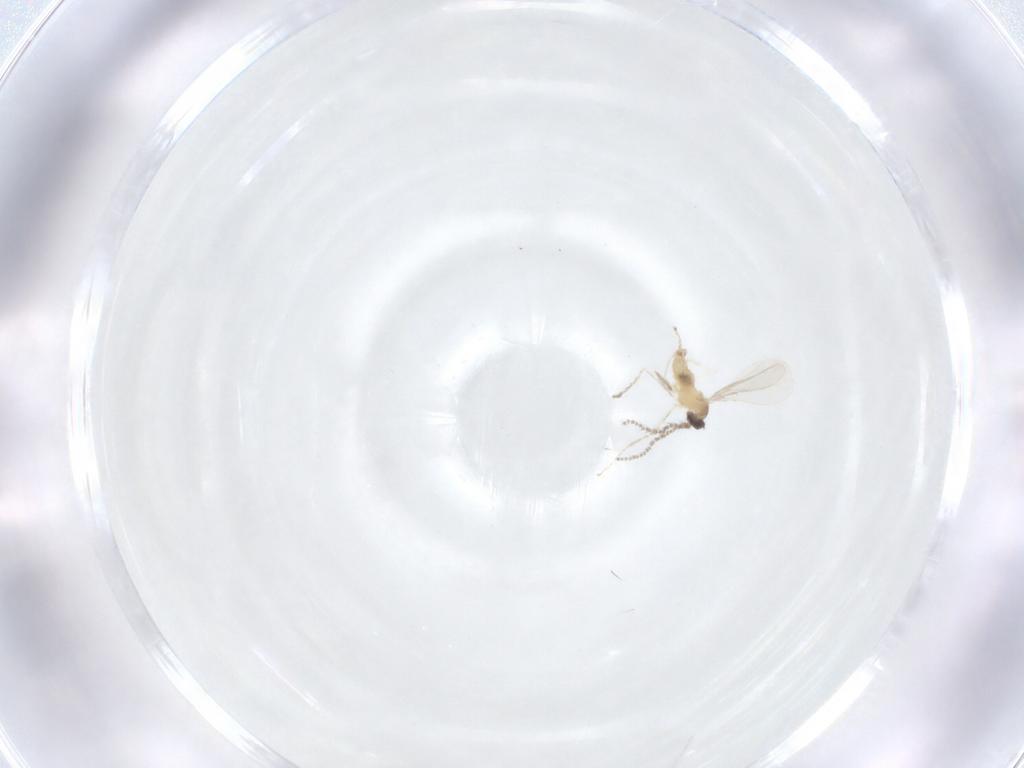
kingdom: Animalia
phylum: Arthropoda
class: Insecta
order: Diptera
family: Cecidomyiidae
